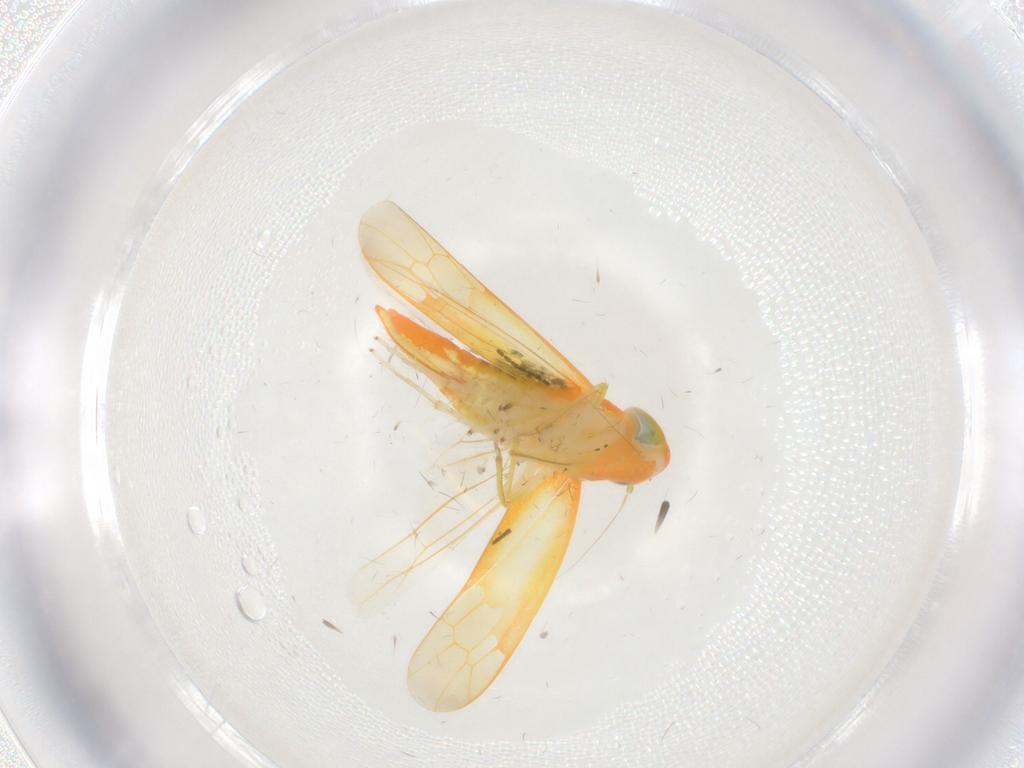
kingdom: Animalia
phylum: Arthropoda
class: Insecta
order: Hemiptera
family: Cicadellidae
